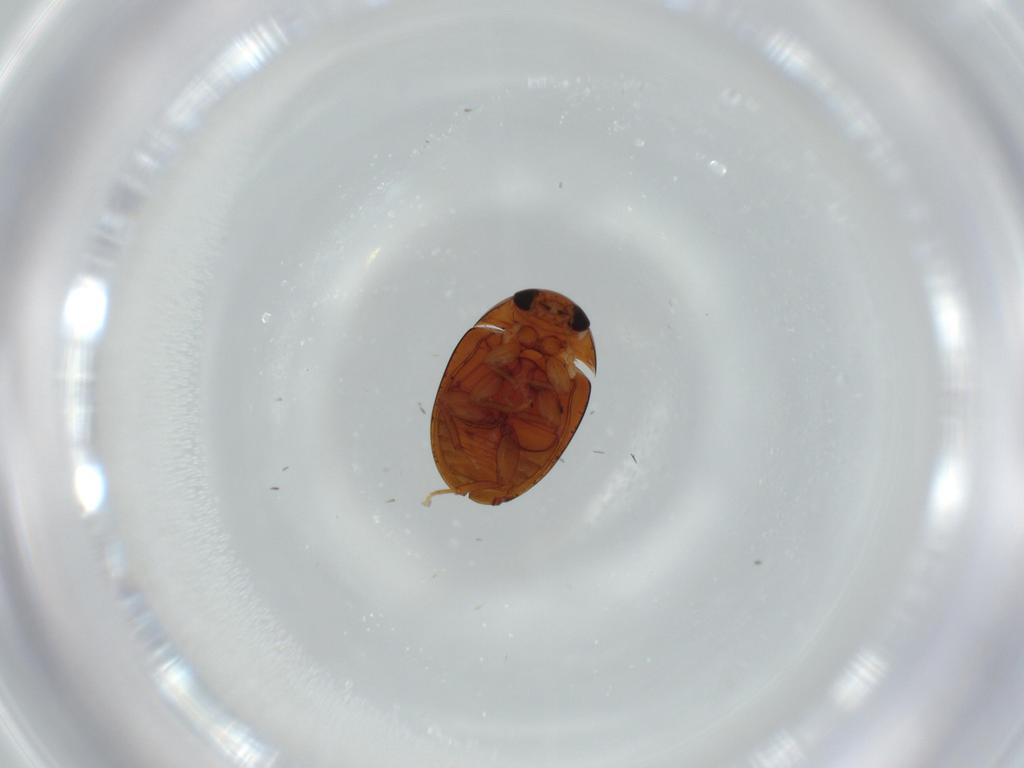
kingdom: Animalia
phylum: Arthropoda
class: Insecta
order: Coleoptera
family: Phalacridae
